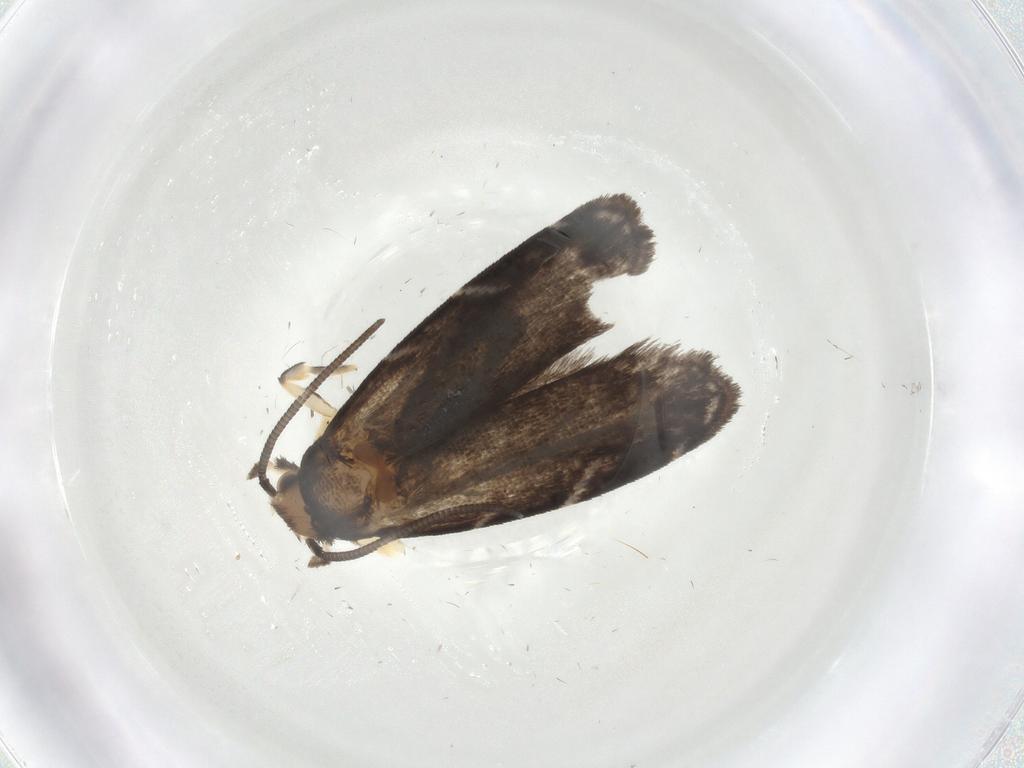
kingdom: Animalia
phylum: Arthropoda
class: Insecta
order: Lepidoptera
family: Dryadaulidae
